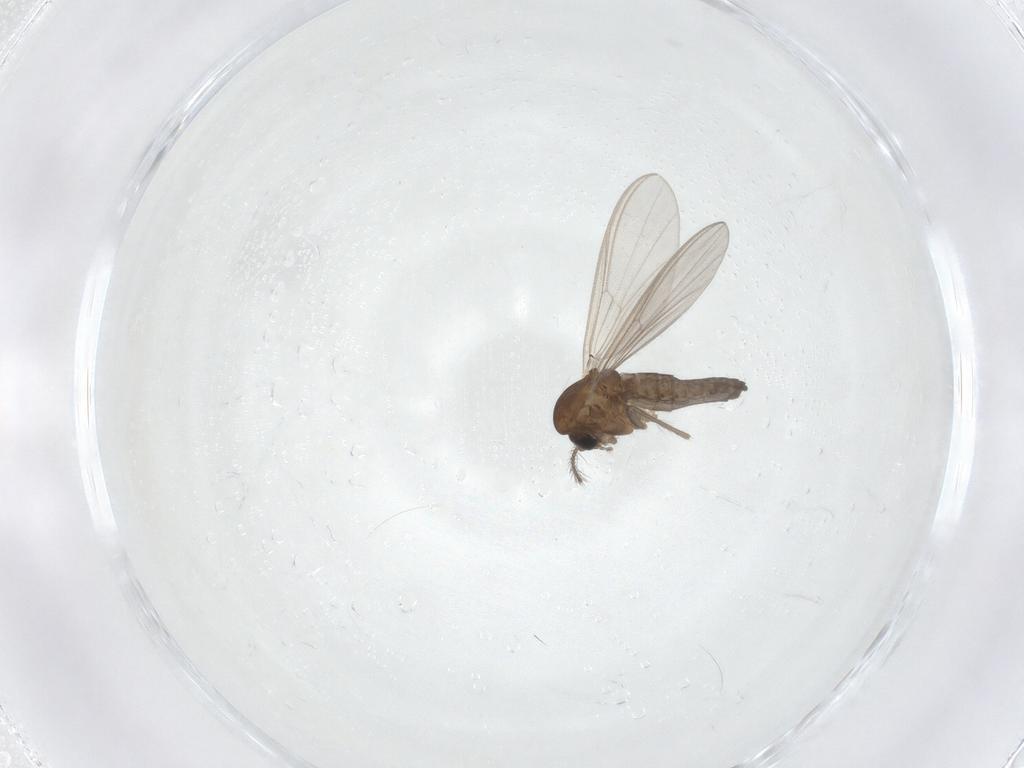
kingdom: Animalia
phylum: Arthropoda
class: Insecta
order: Diptera
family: Chironomidae
